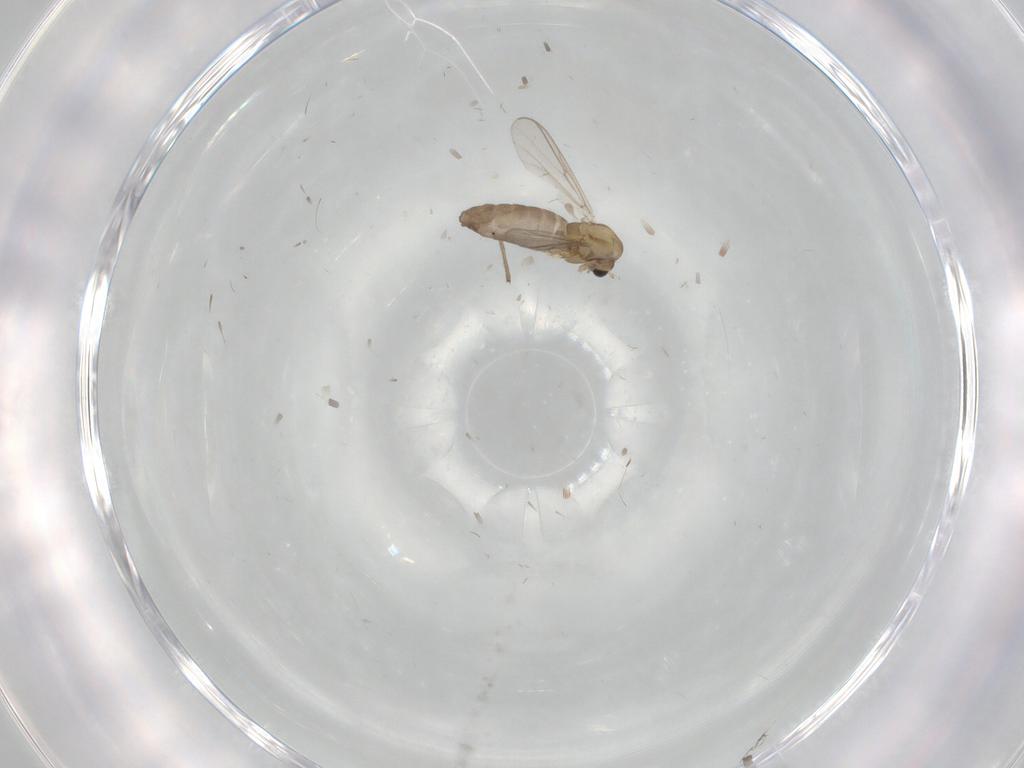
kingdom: Animalia
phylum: Arthropoda
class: Insecta
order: Diptera
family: Chironomidae
